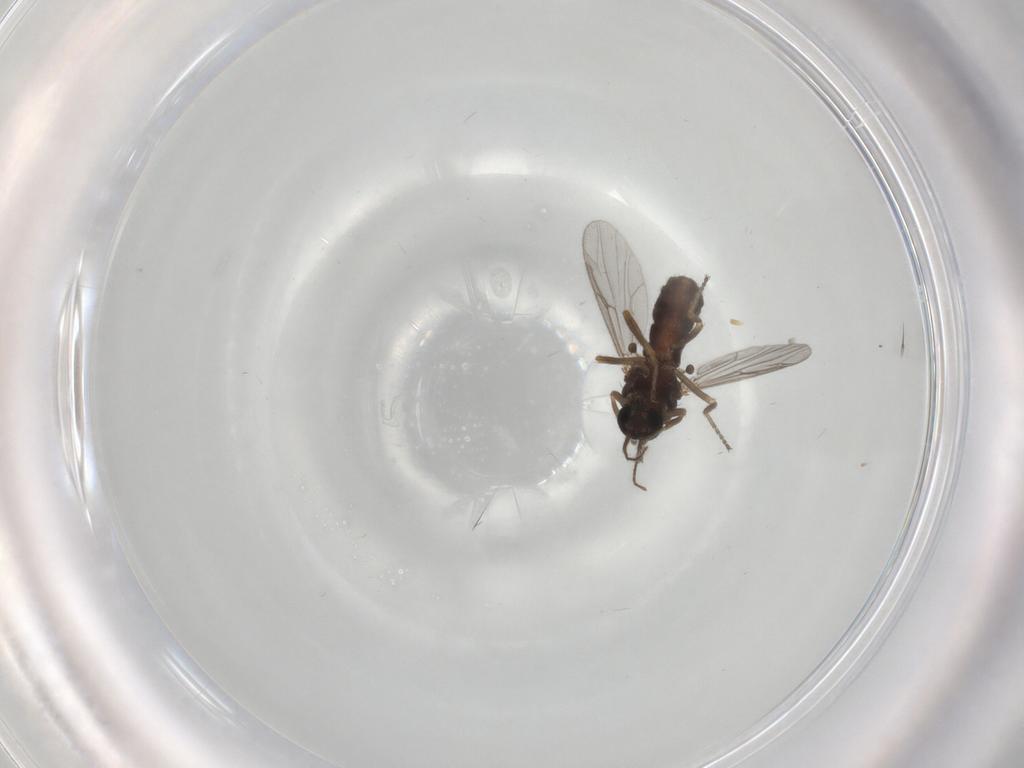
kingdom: Animalia
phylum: Arthropoda
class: Insecta
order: Diptera
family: Ceratopogonidae
